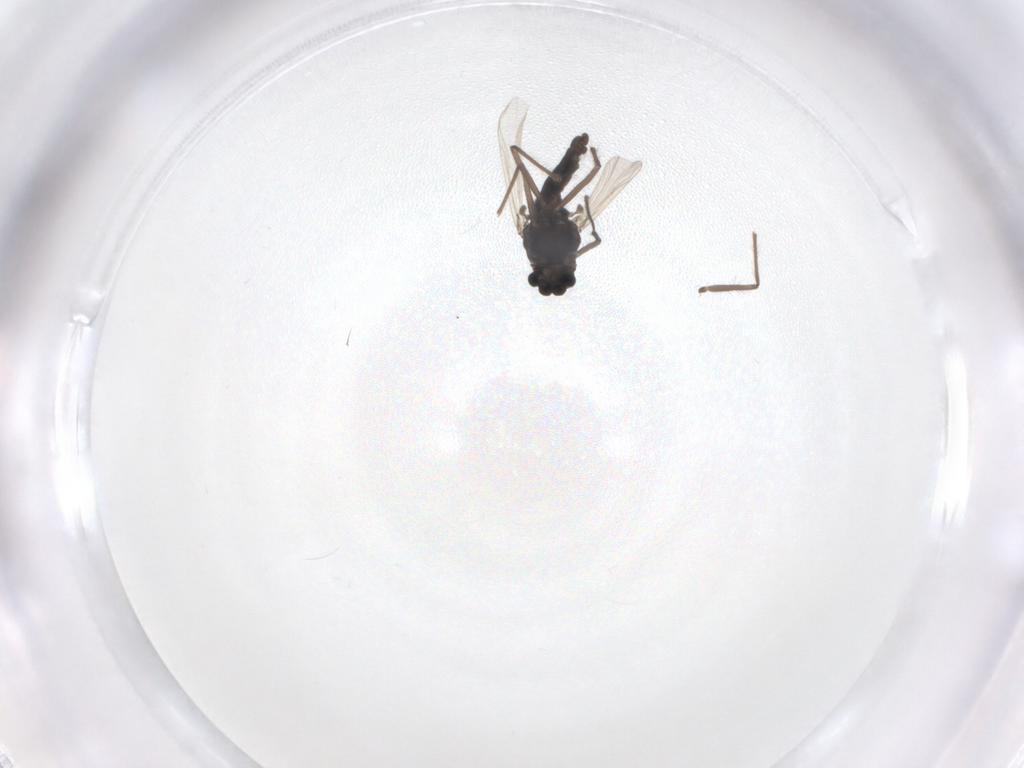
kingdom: Animalia
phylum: Arthropoda
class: Insecta
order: Diptera
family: Chironomidae
